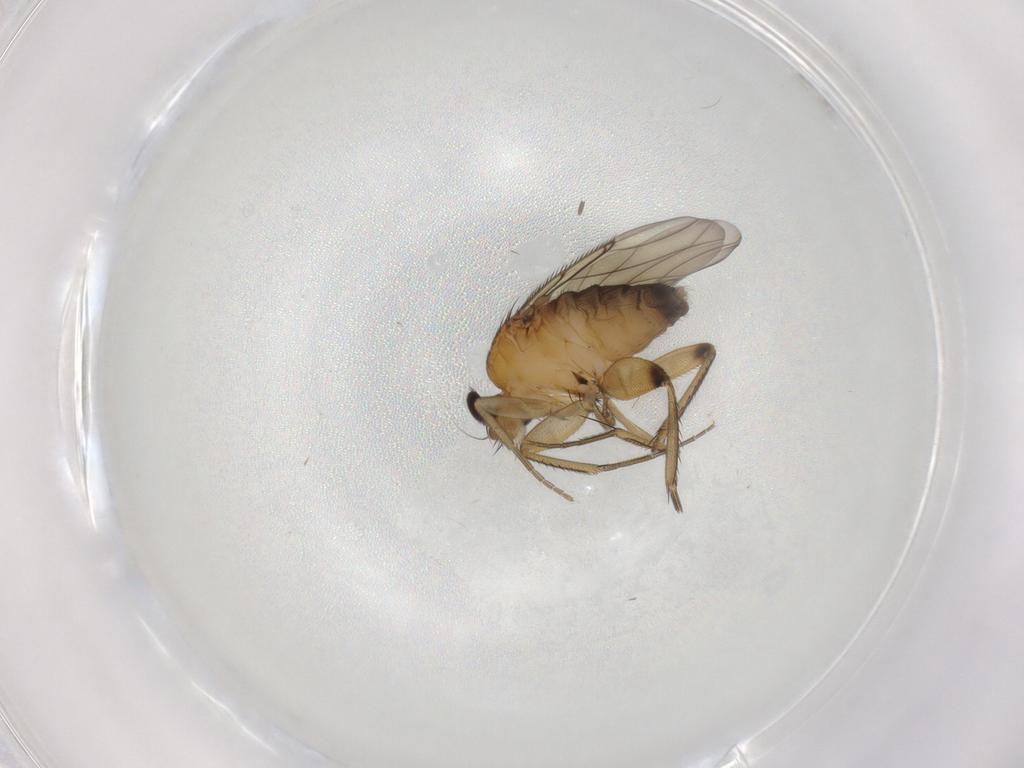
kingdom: Animalia
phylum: Arthropoda
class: Insecta
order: Diptera
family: Phoridae
